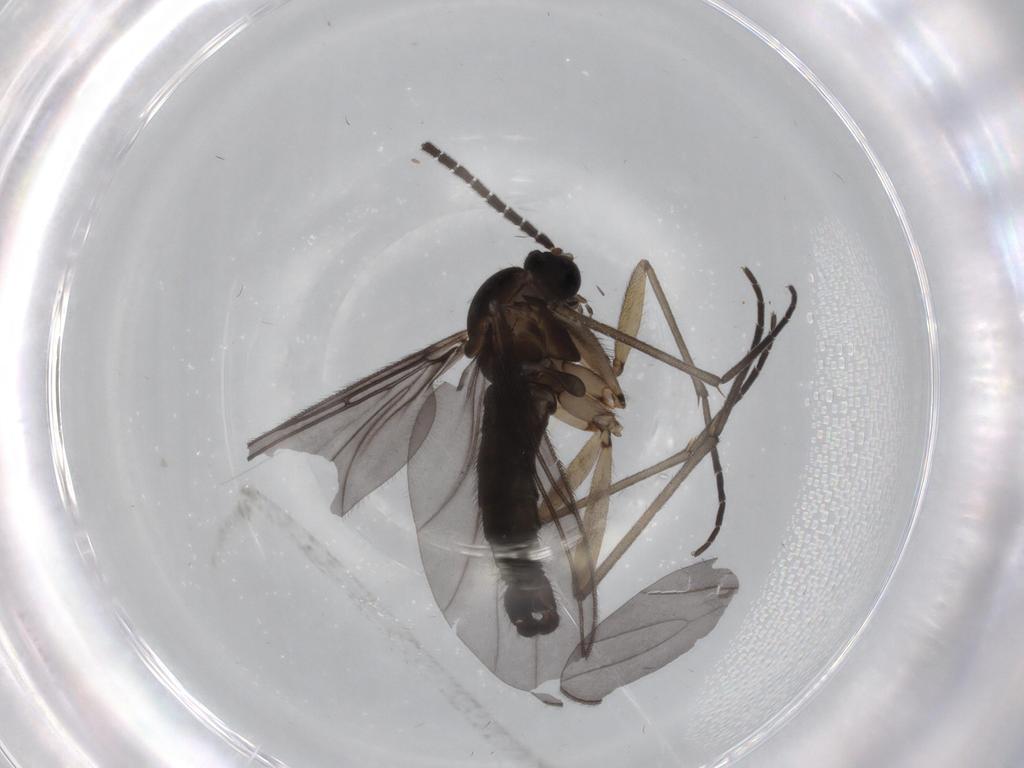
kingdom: Animalia
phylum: Arthropoda
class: Insecta
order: Diptera
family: Sciaridae
